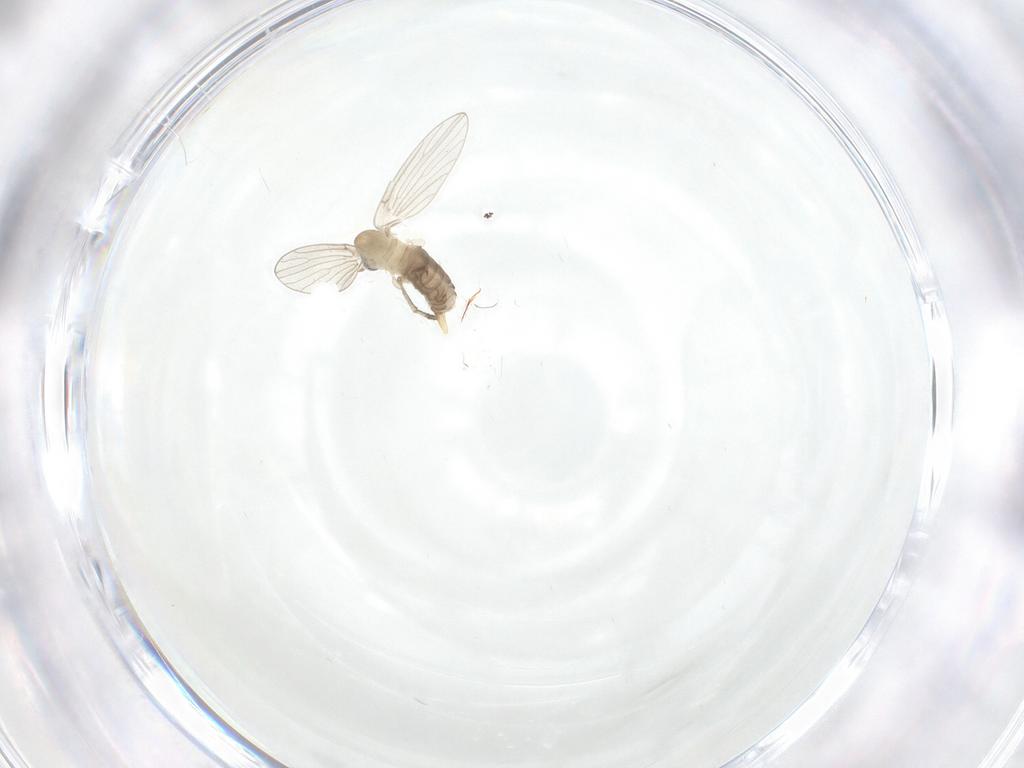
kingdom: Animalia
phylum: Arthropoda
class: Insecta
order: Diptera
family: Psychodidae
